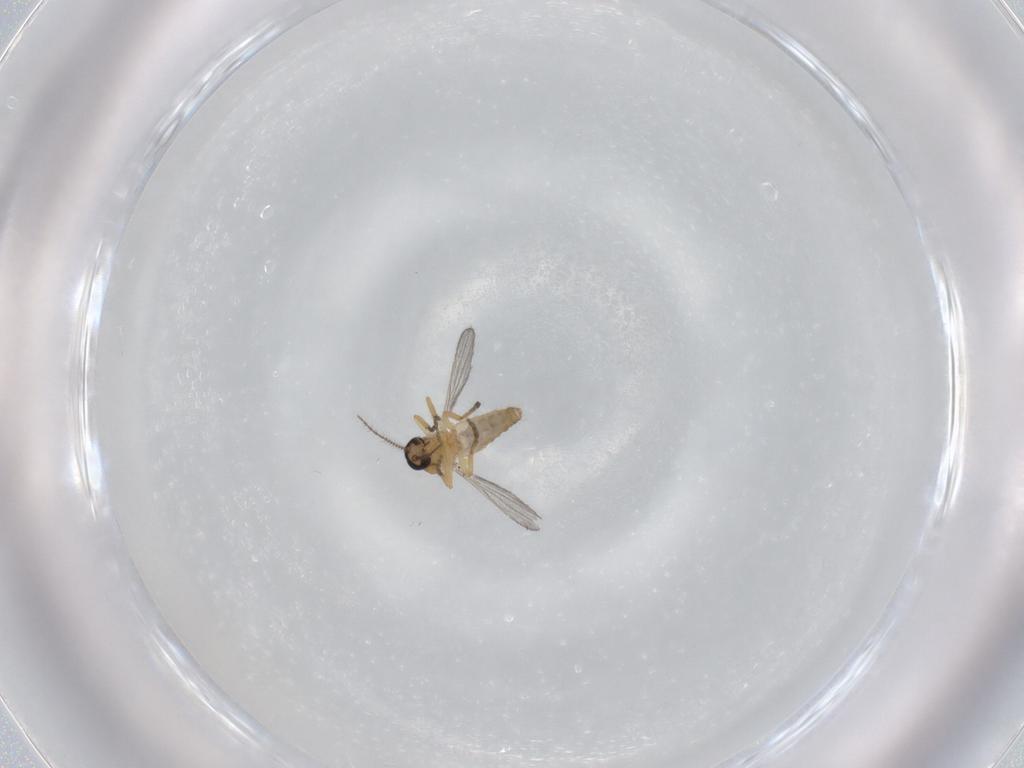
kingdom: Animalia
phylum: Arthropoda
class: Insecta
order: Diptera
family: Ceratopogonidae
